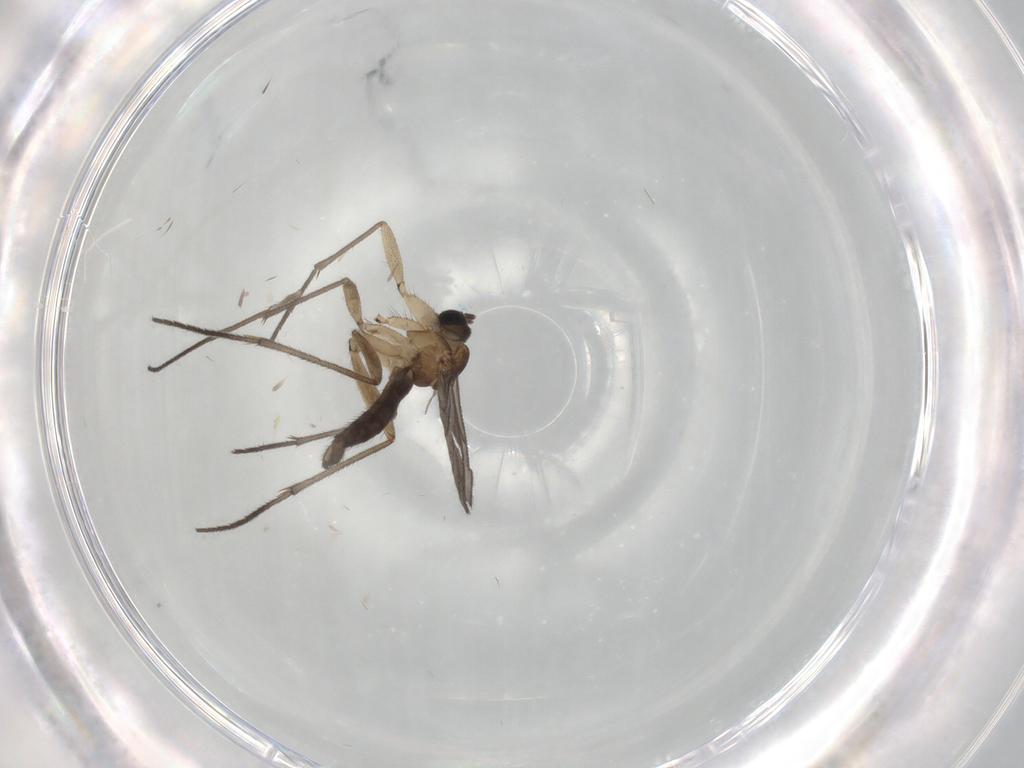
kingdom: Animalia
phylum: Arthropoda
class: Insecta
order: Diptera
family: Sciaridae
